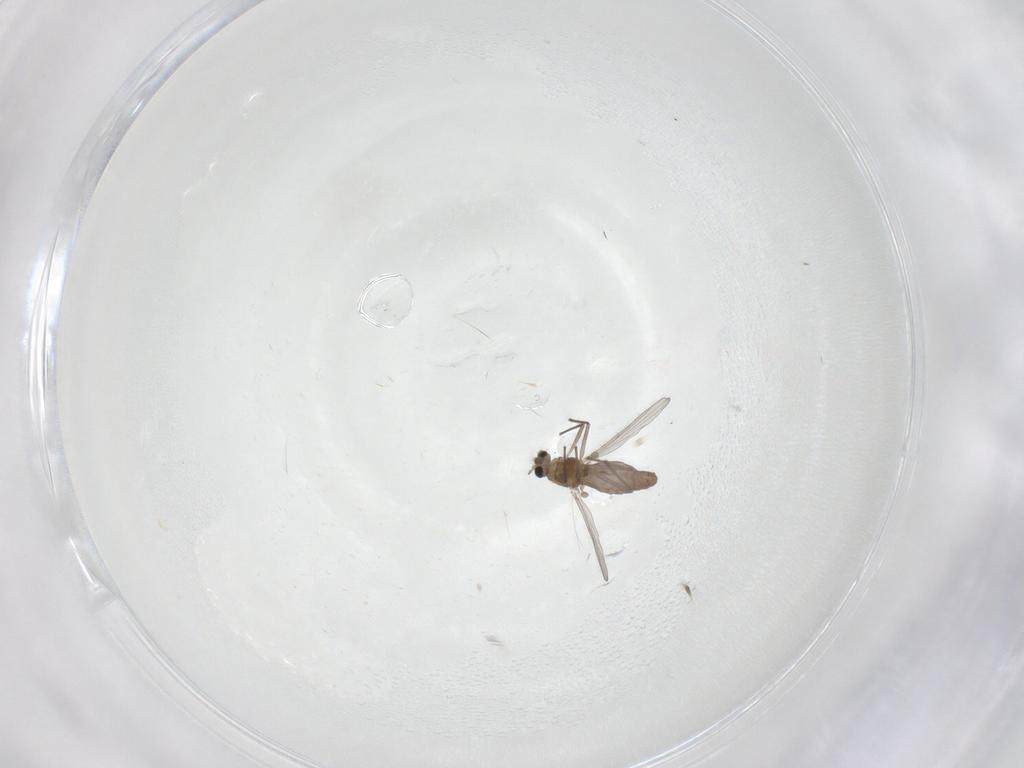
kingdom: Animalia
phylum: Arthropoda
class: Insecta
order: Diptera
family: Chironomidae
